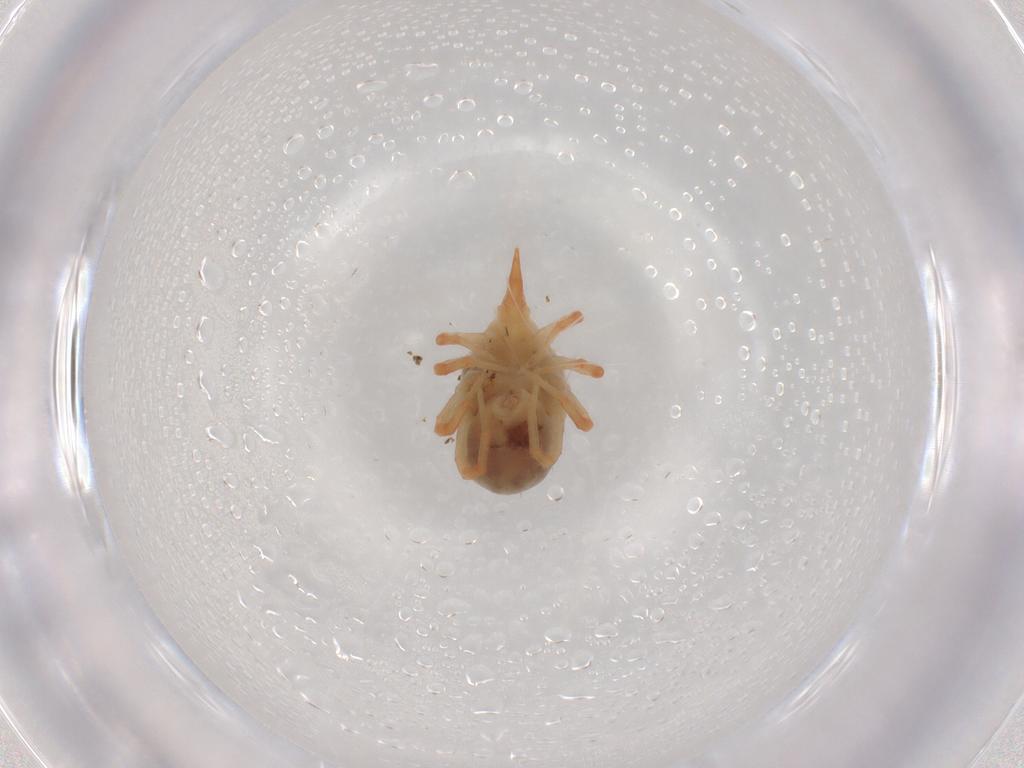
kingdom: Animalia
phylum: Arthropoda
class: Arachnida
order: Trombidiformes
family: Bdellidae
